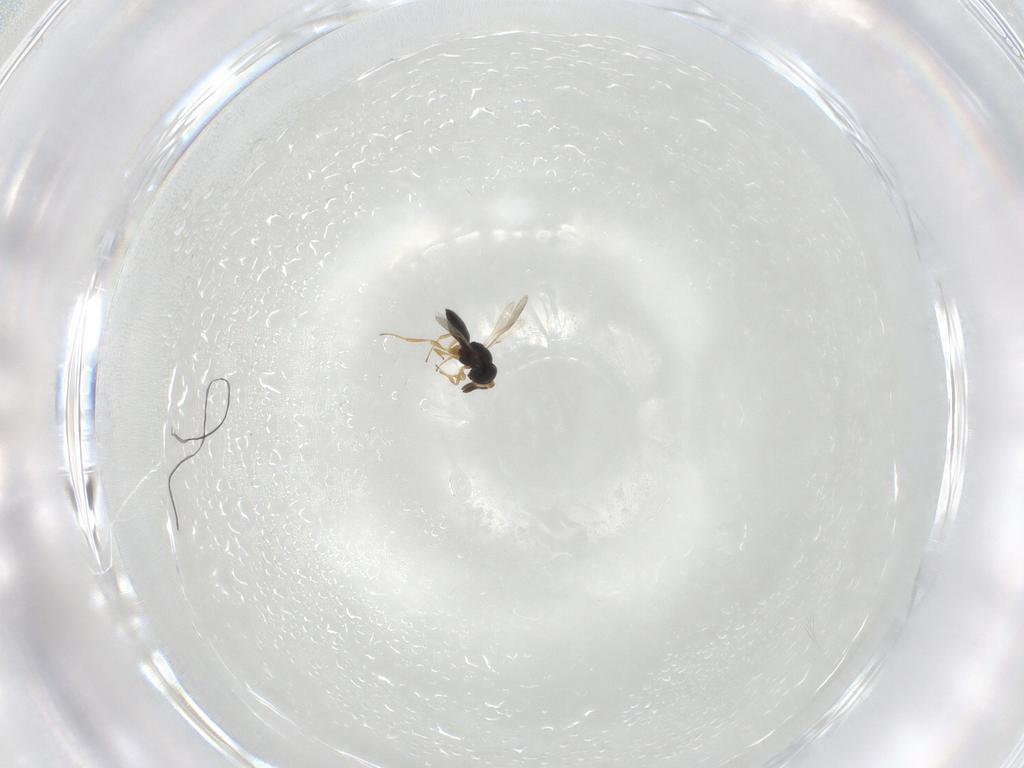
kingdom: Animalia
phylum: Arthropoda
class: Insecta
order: Hymenoptera
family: Scelionidae
